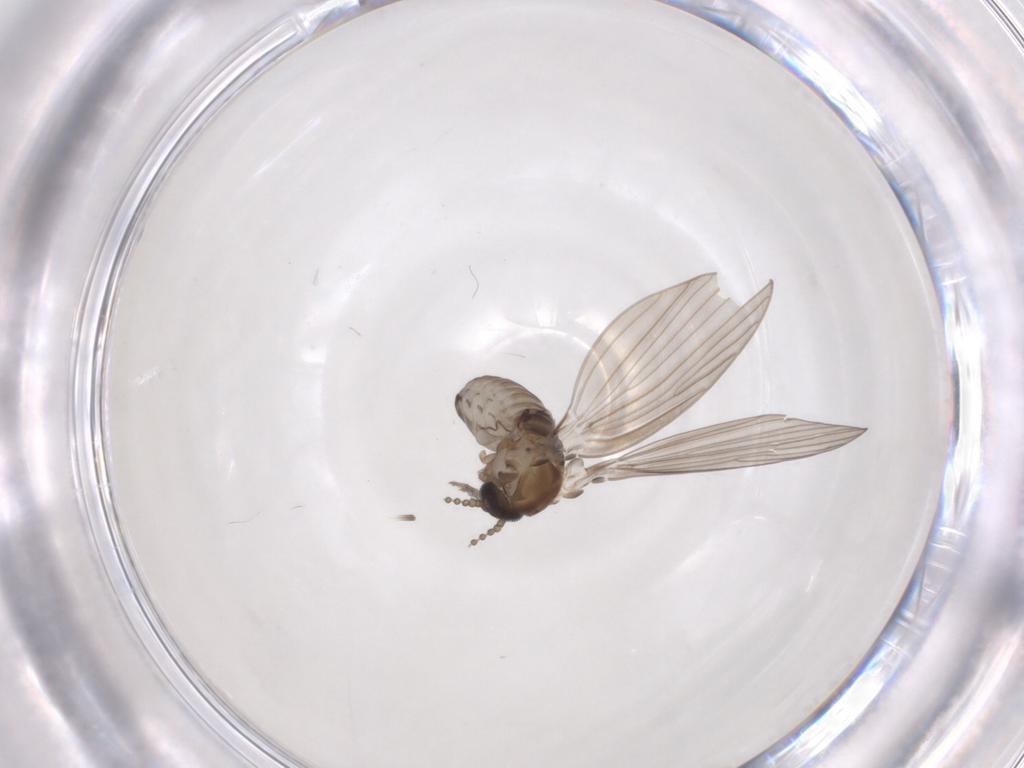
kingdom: Animalia
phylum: Arthropoda
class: Insecta
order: Diptera
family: Psychodidae
